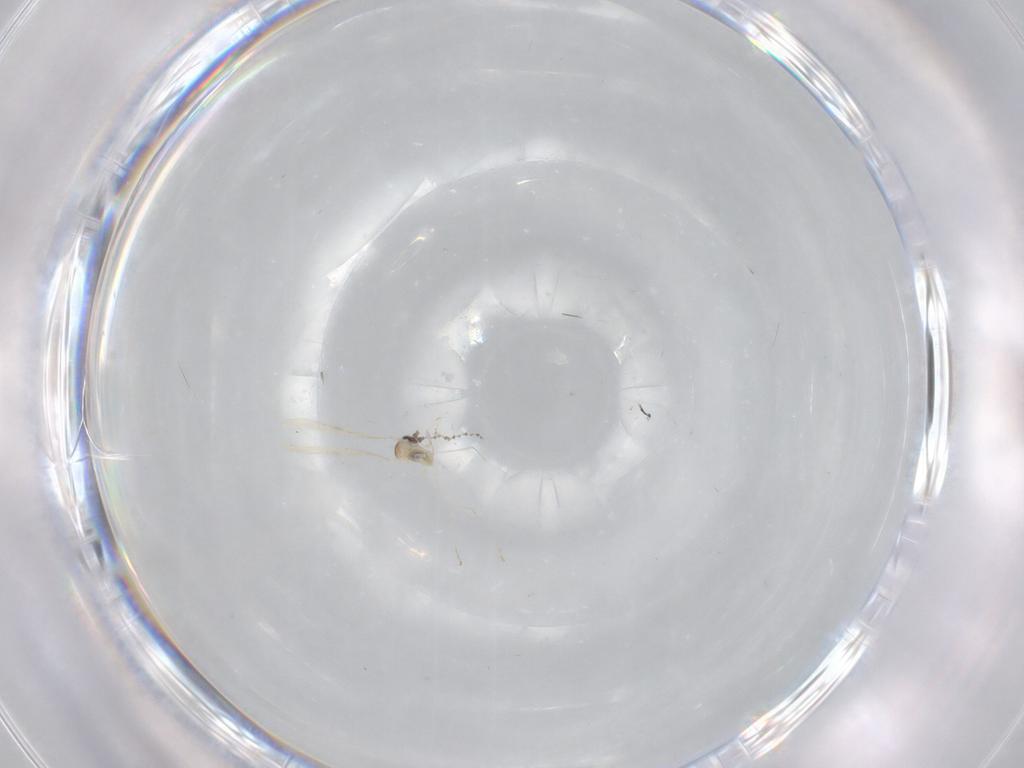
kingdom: Animalia
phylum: Arthropoda
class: Insecta
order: Diptera
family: Cecidomyiidae
